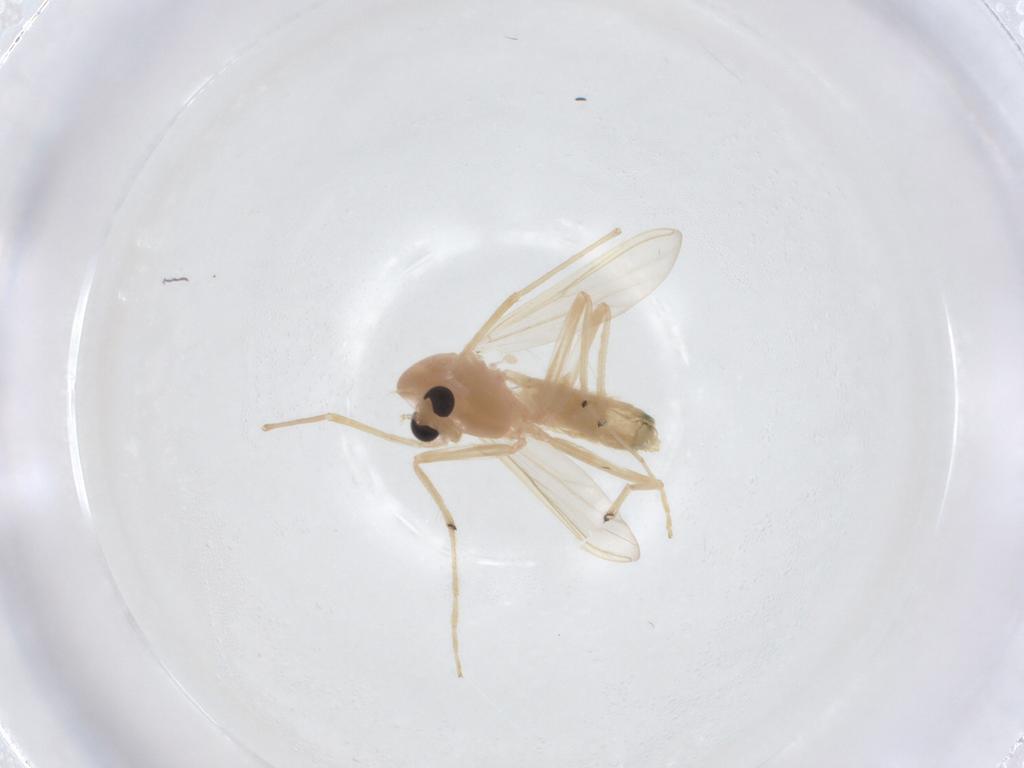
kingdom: Animalia
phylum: Arthropoda
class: Insecta
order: Diptera
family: Chironomidae
